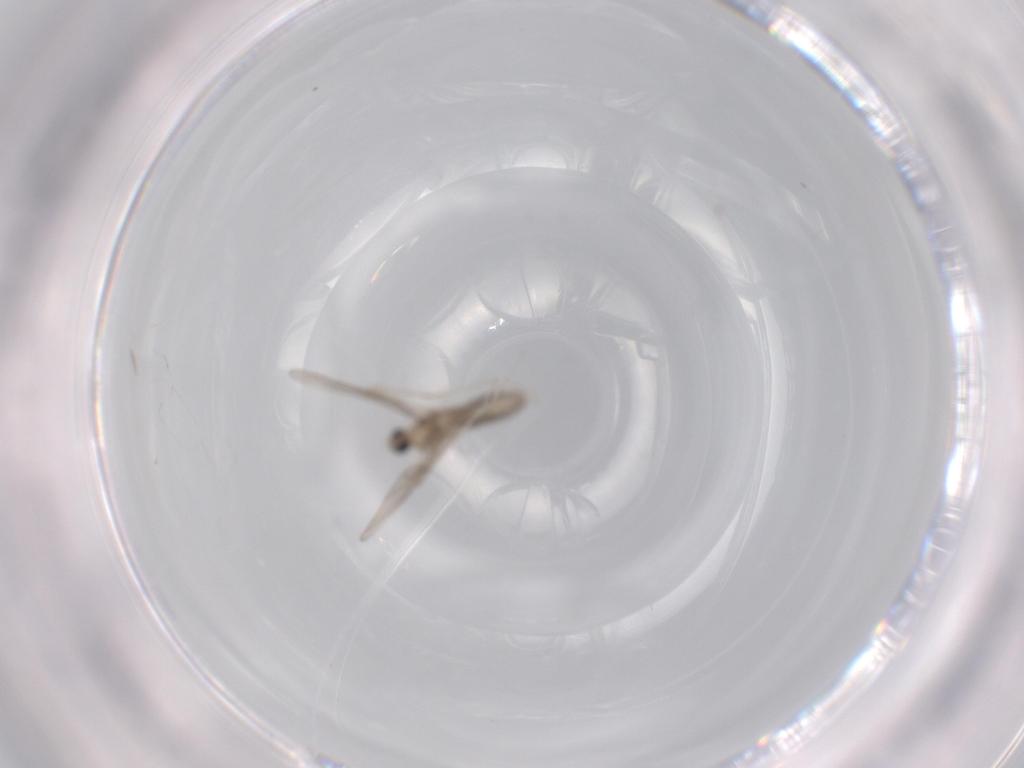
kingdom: Animalia
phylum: Arthropoda
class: Insecta
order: Diptera
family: Cecidomyiidae
